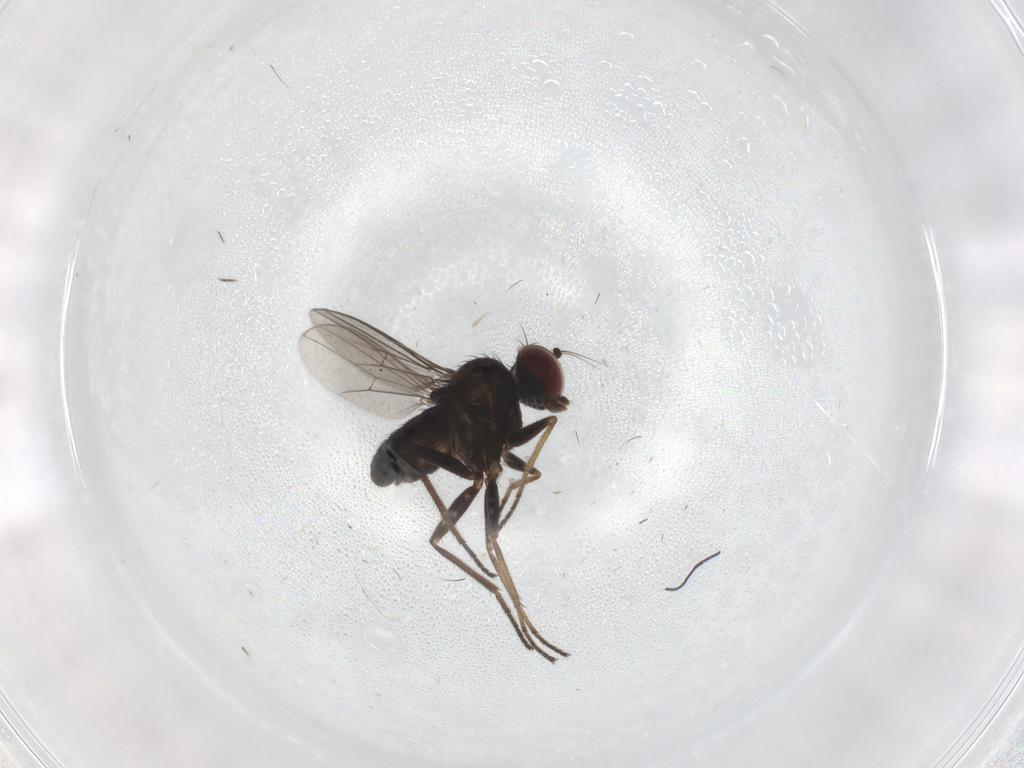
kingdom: Animalia
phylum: Arthropoda
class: Insecta
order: Diptera
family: Dolichopodidae
